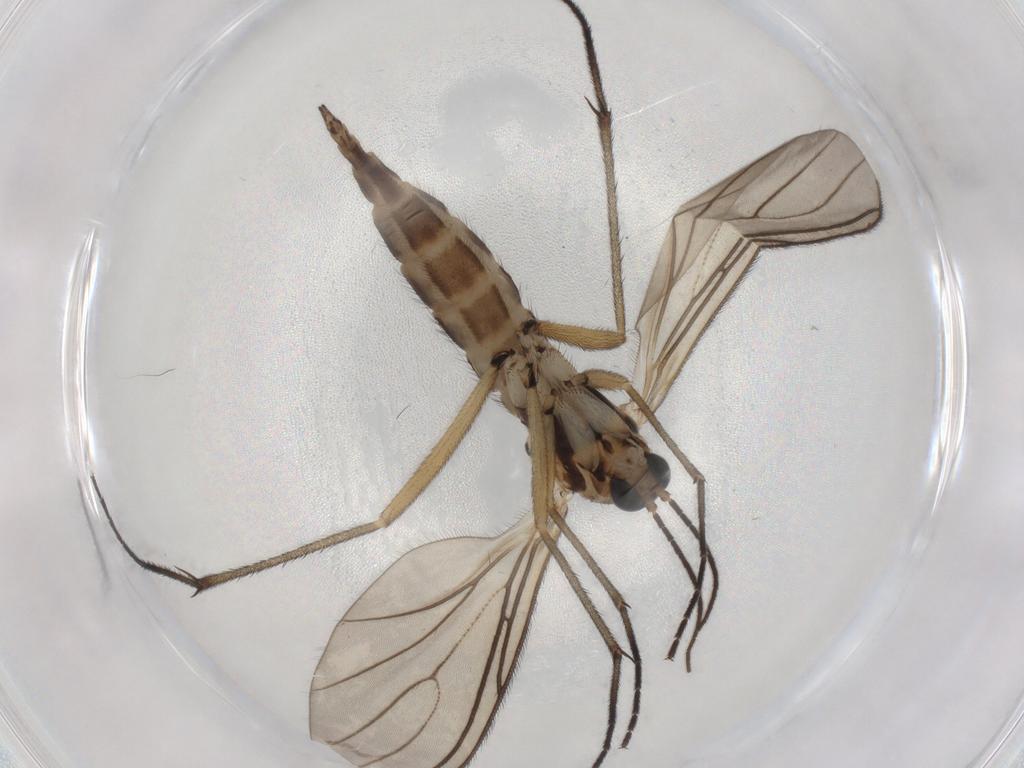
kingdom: Animalia
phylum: Arthropoda
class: Insecta
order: Diptera
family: Sciaridae
